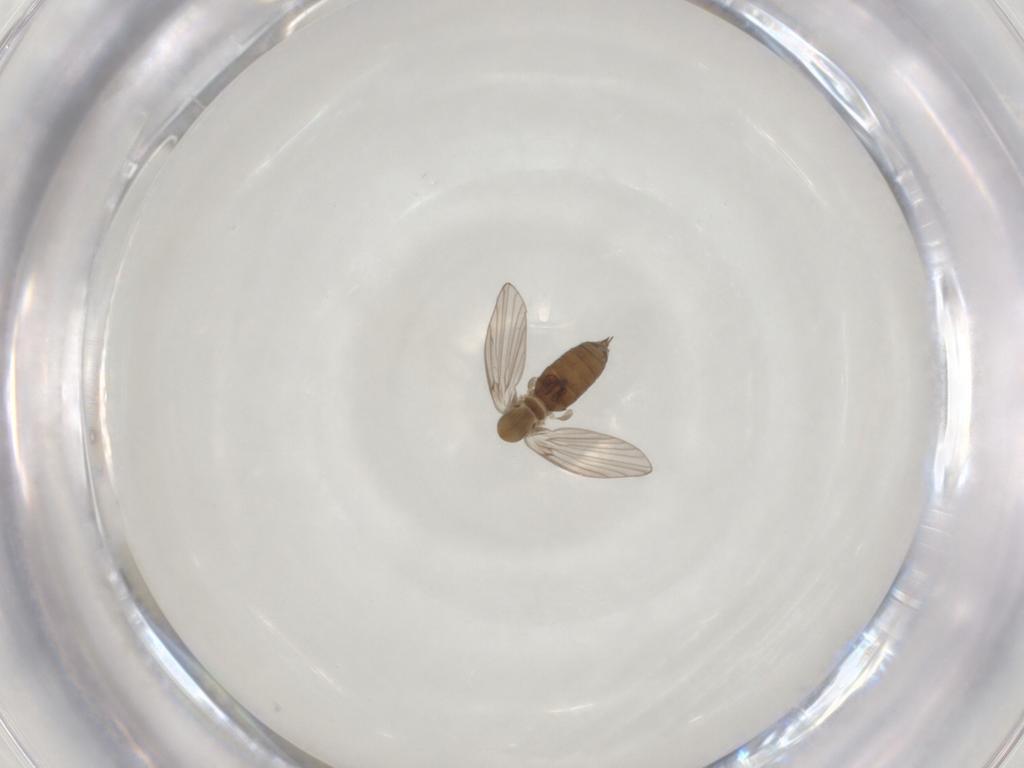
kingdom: Animalia
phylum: Arthropoda
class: Insecta
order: Diptera
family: Psychodidae
